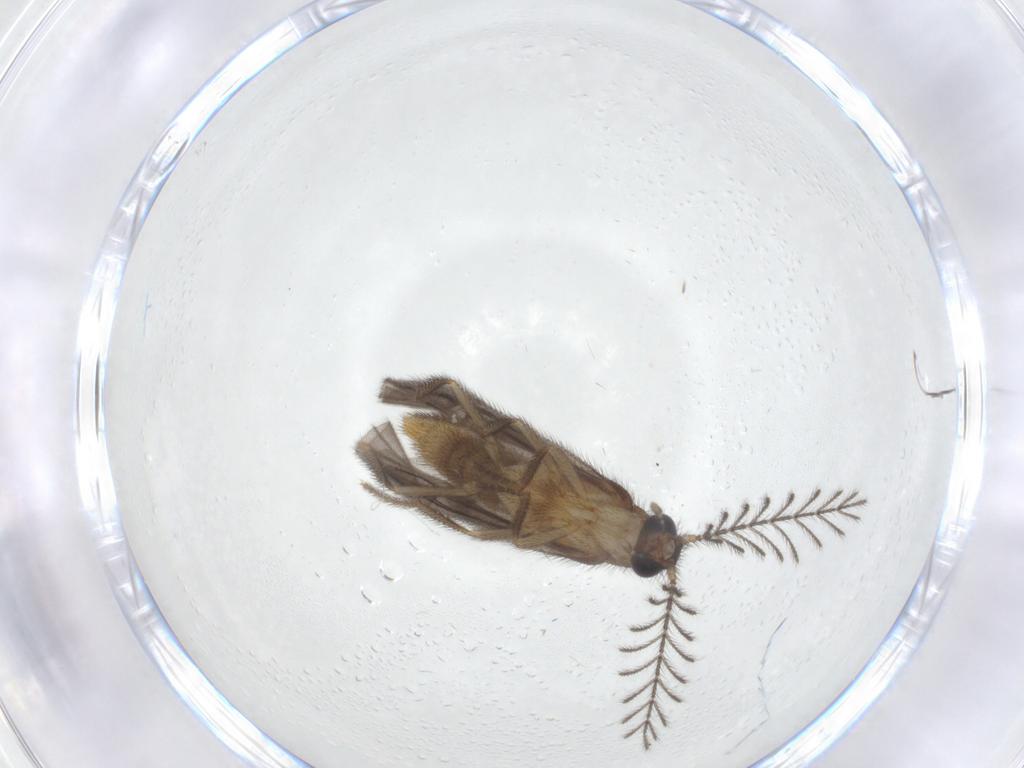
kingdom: Animalia
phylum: Arthropoda
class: Insecta
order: Coleoptera
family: Phengodidae
